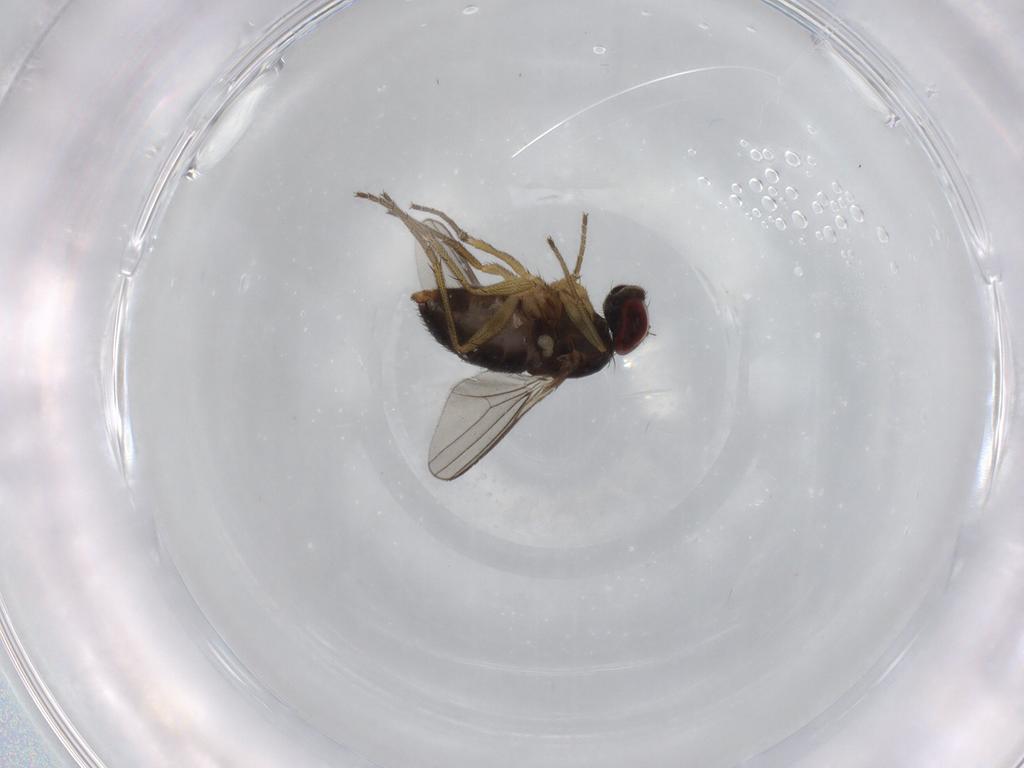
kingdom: Animalia
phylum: Arthropoda
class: Insecta
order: Diptera
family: Dolichopodidae
